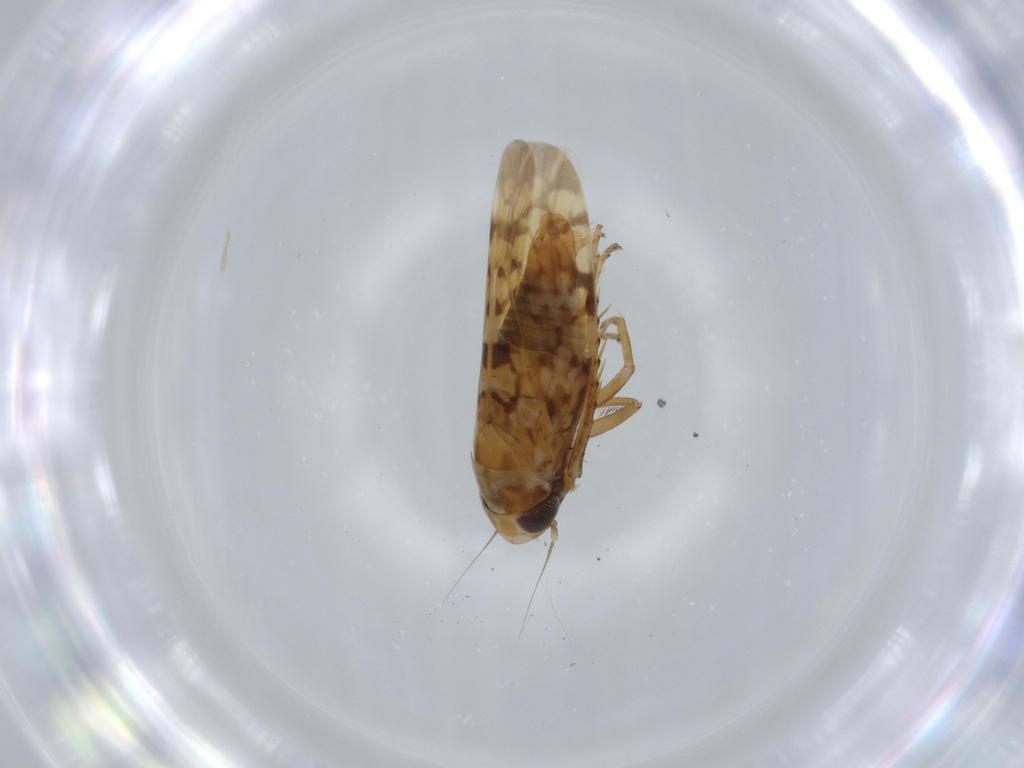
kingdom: Animalia
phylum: Arthropoda
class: Insecta
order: Hemiptera
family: Cicadellidae
